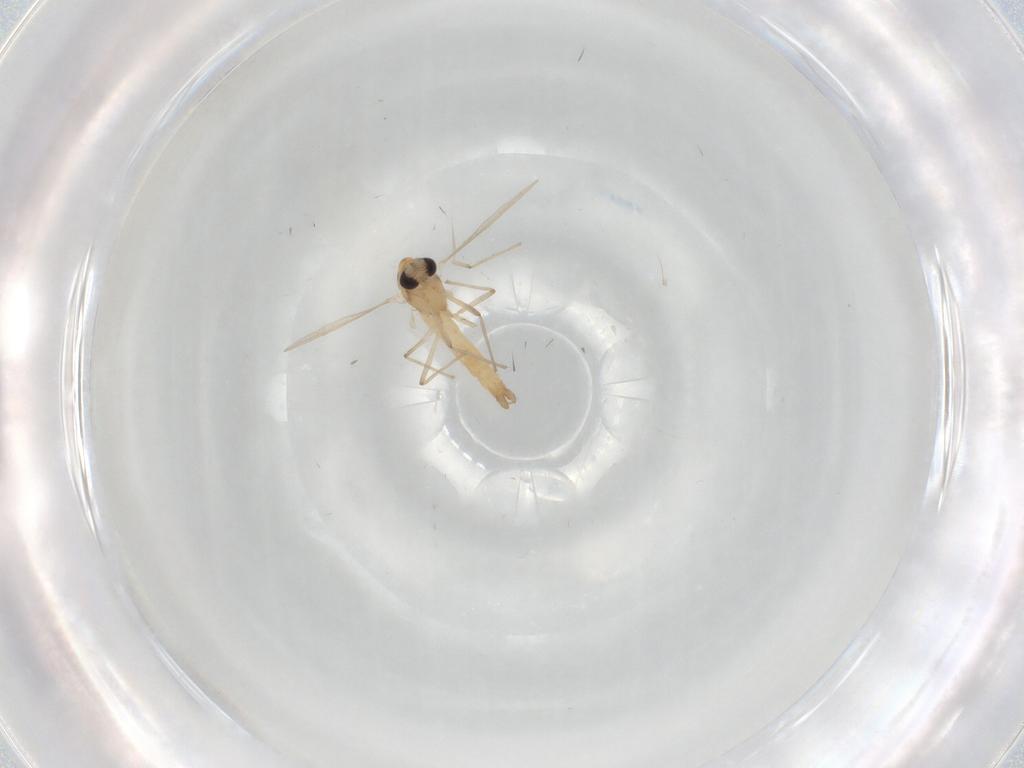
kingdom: Animalia
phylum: Arthropoda
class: Insecta
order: Diptera
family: Chironomidae
